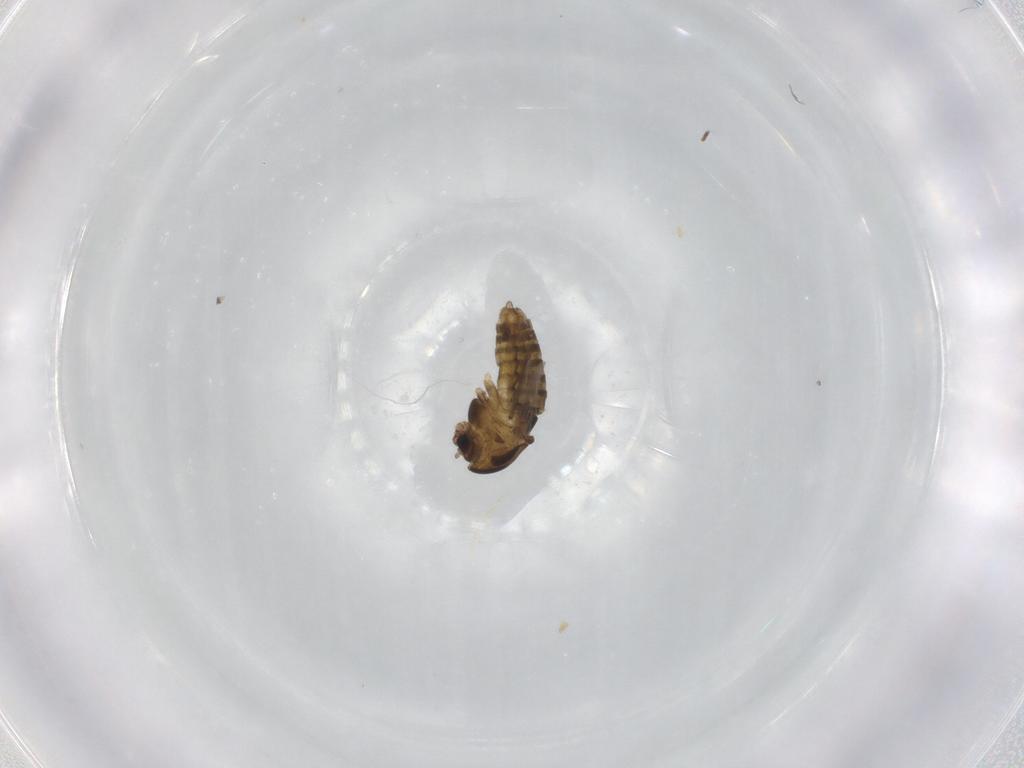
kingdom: Animalia
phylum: Arthropoda
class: Insecta
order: Diptera
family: Chironomidae
